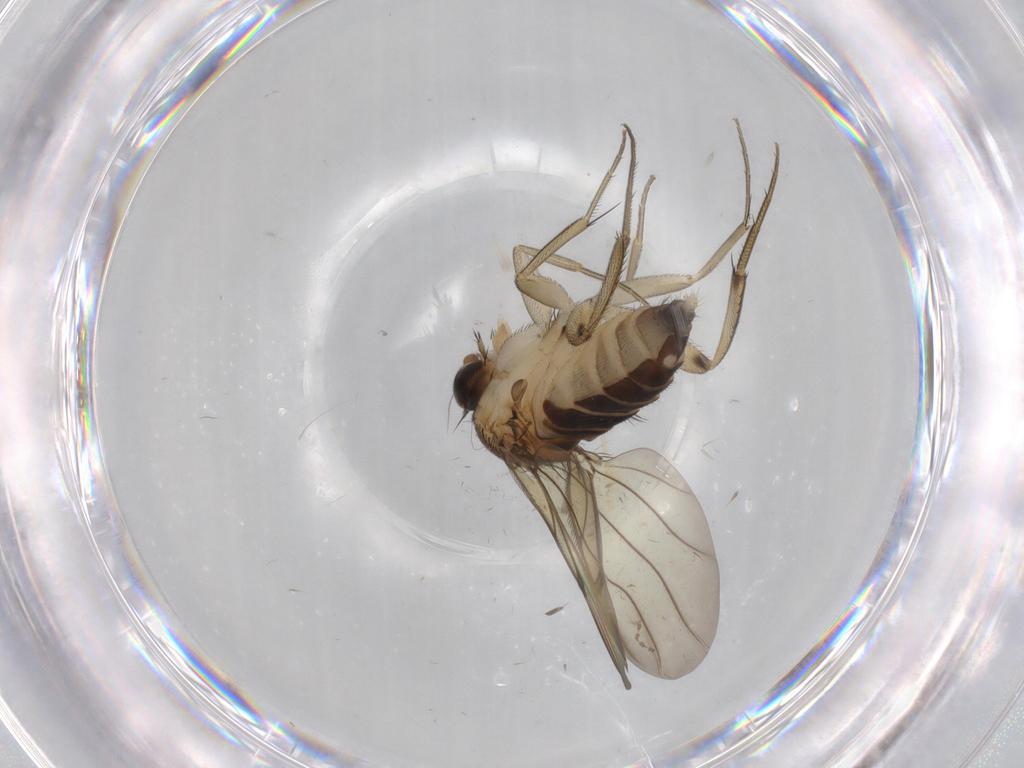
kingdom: Animalia
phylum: Arthropoda
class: Insecta
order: Diptera
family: Phoridae
